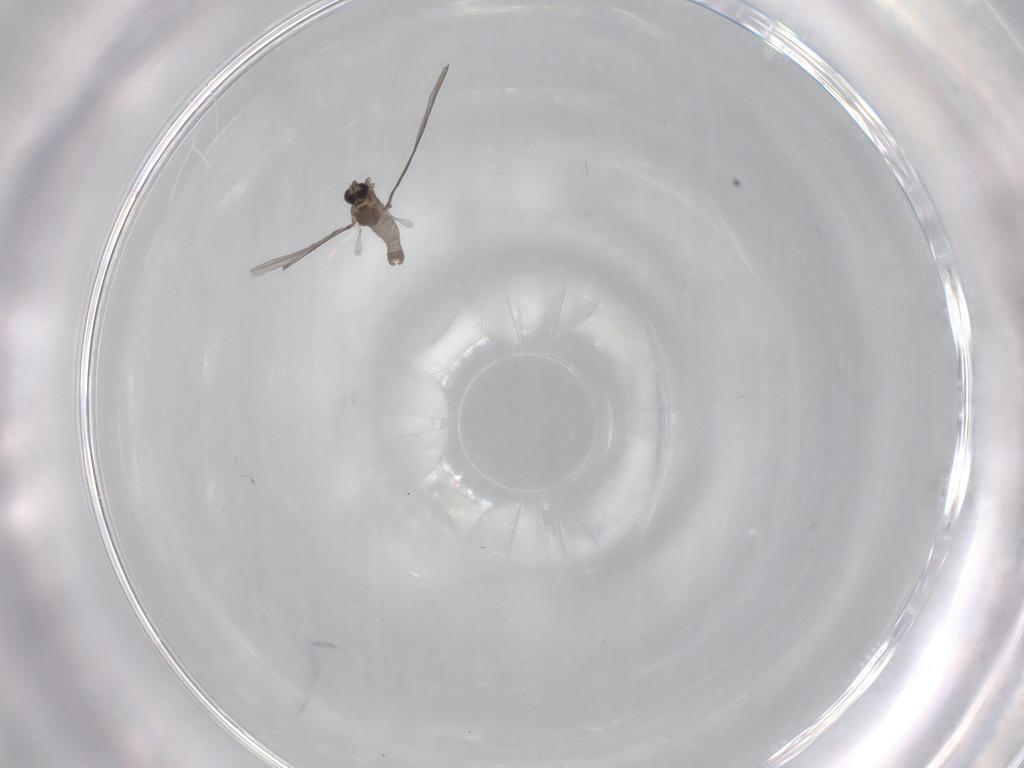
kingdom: Animalia
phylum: Arthropoda
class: Insecta
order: Diptera
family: Cecidomyiidae
